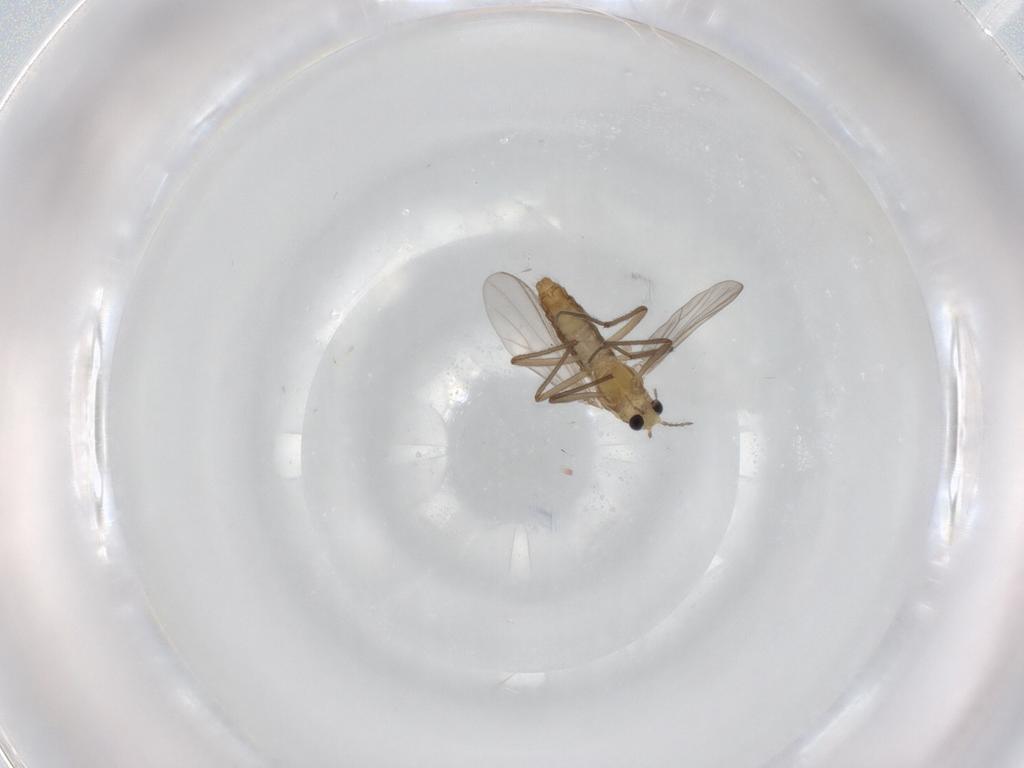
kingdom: Animalia
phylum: Arthropoda
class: Insecta
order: Diptera
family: Chironomidae
